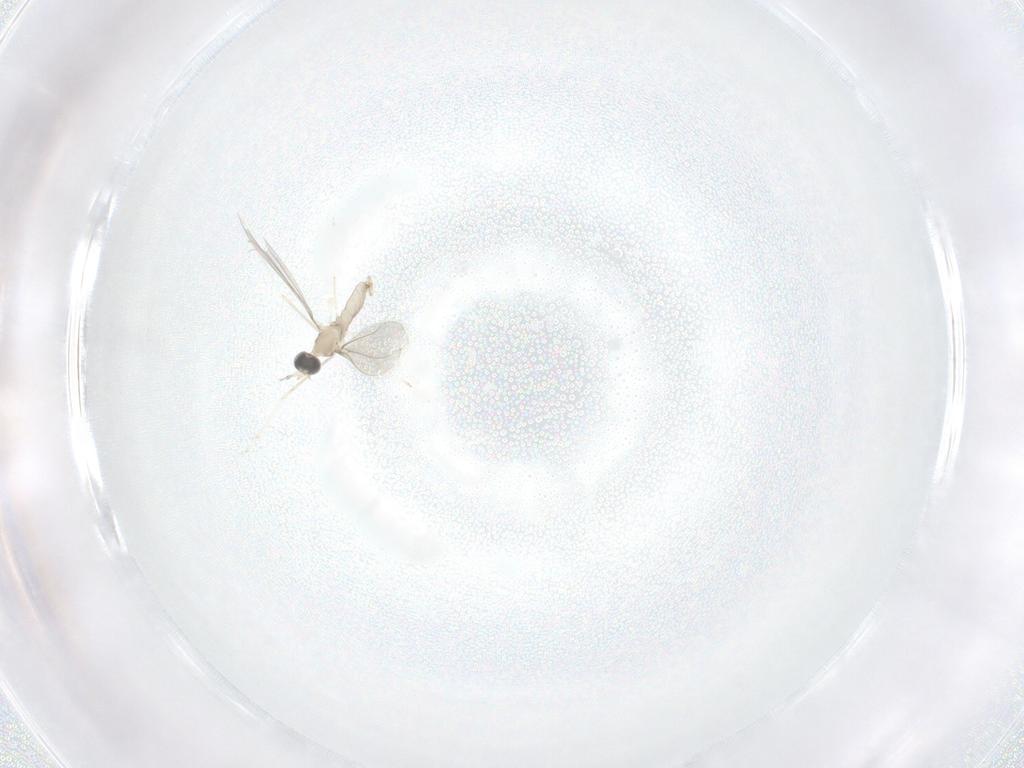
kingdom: Animalia
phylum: Arthropoda
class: Insecta
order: Diptera
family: Cecidomyiidae
